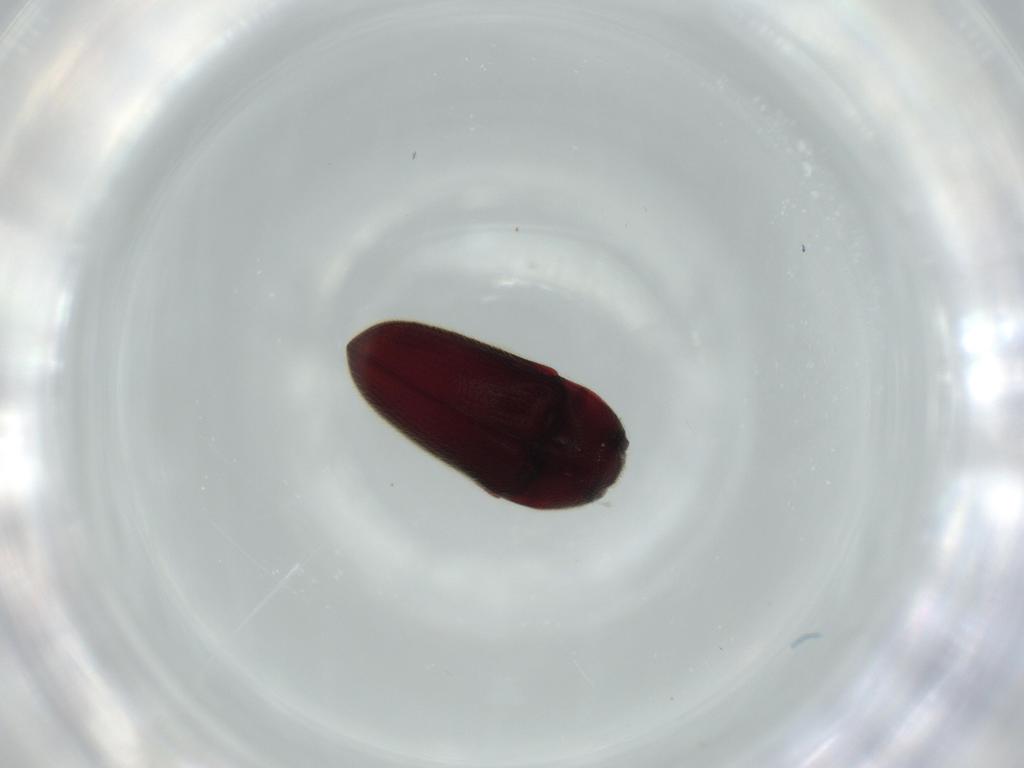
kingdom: Animalia
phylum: Arthropoda
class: Insecta
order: Coleoptera
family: Throscidae
